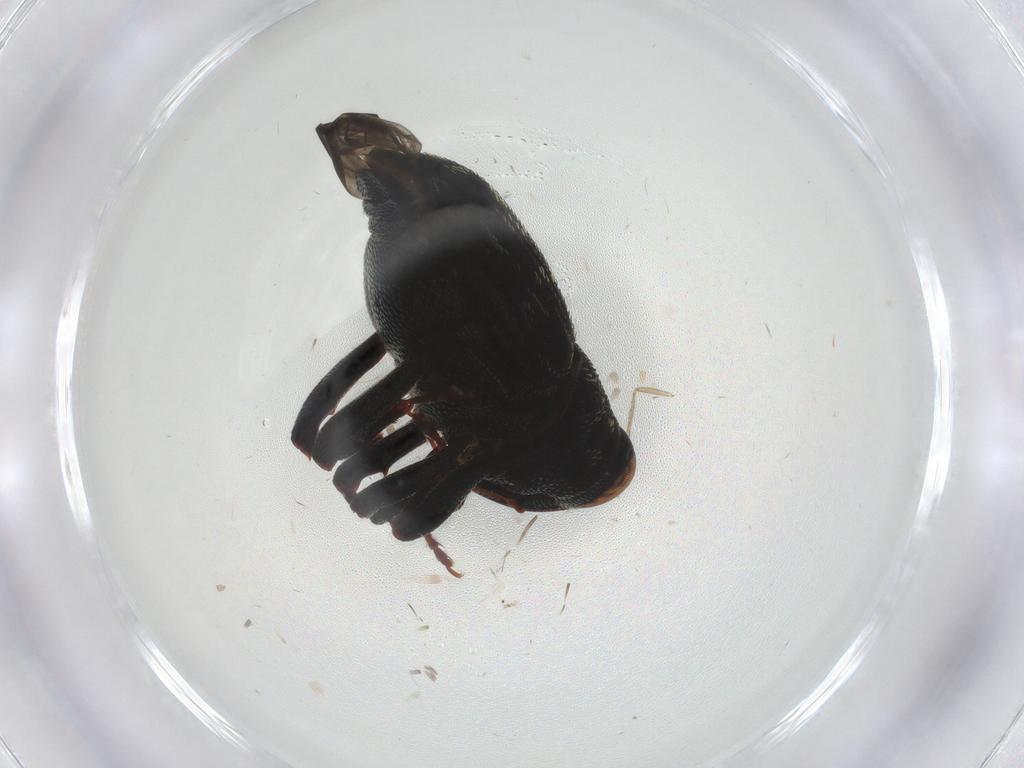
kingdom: Animalia
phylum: Arthropoda
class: Insecta
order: Coleoptera
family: Curculionidae
